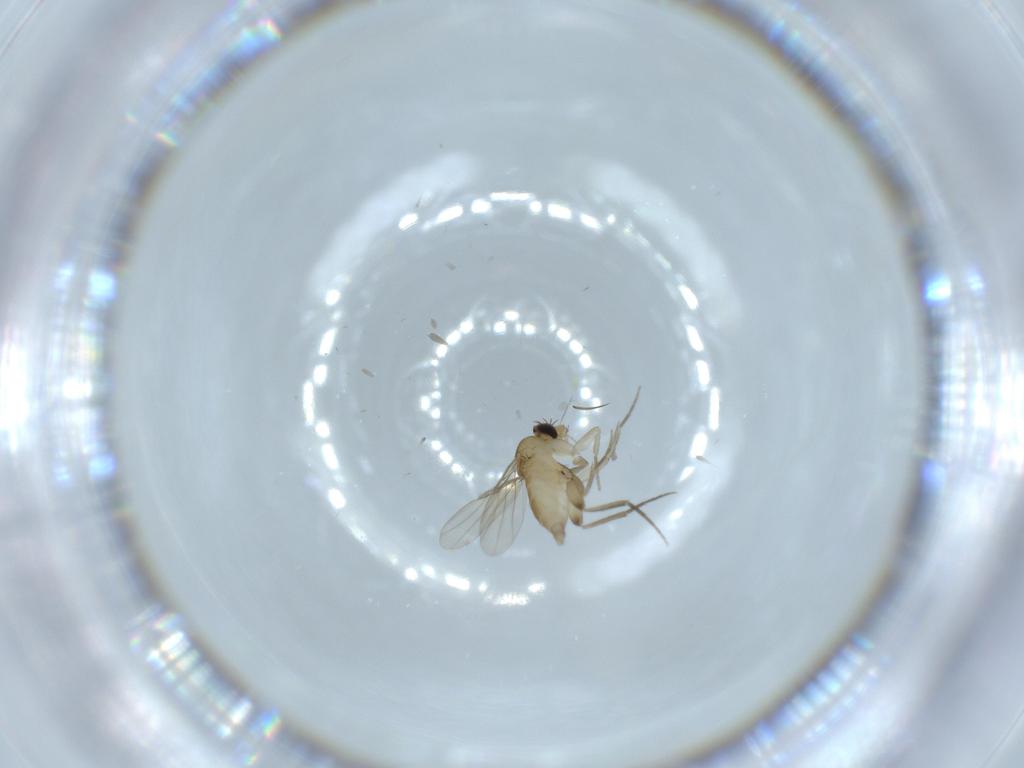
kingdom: Animalia
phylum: Arthropoda
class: Insecta
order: Diptera
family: Phoridae
